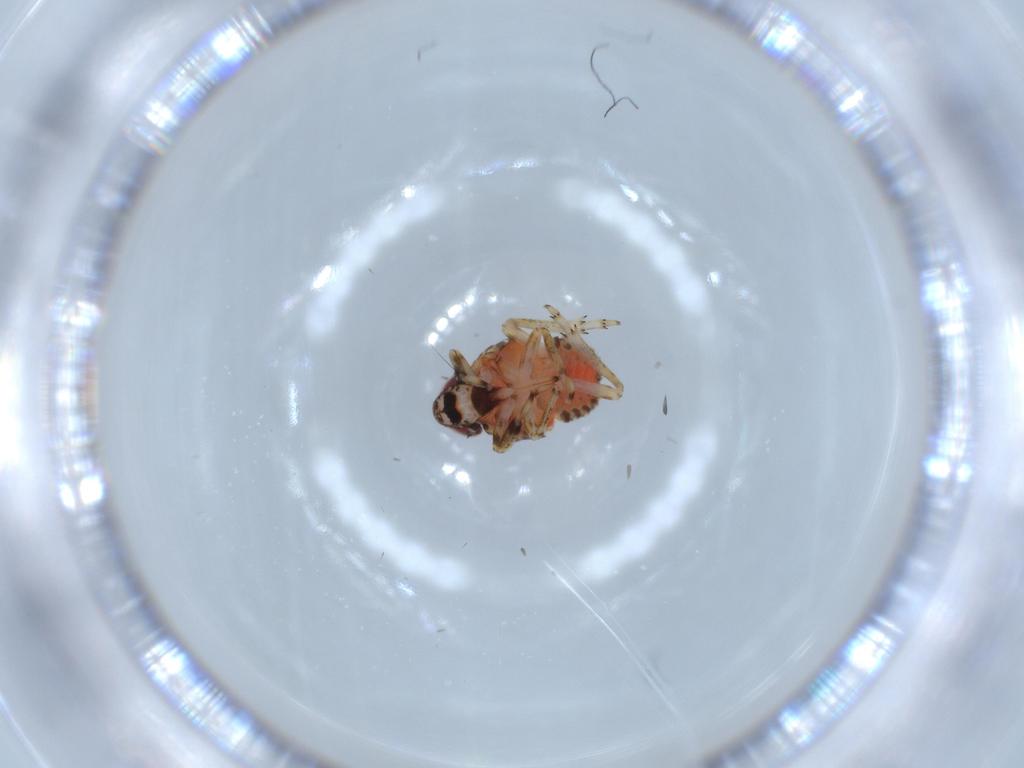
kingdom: Animalia
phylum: Arthropoda
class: Insecta
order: Hemiptera
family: Issidae
